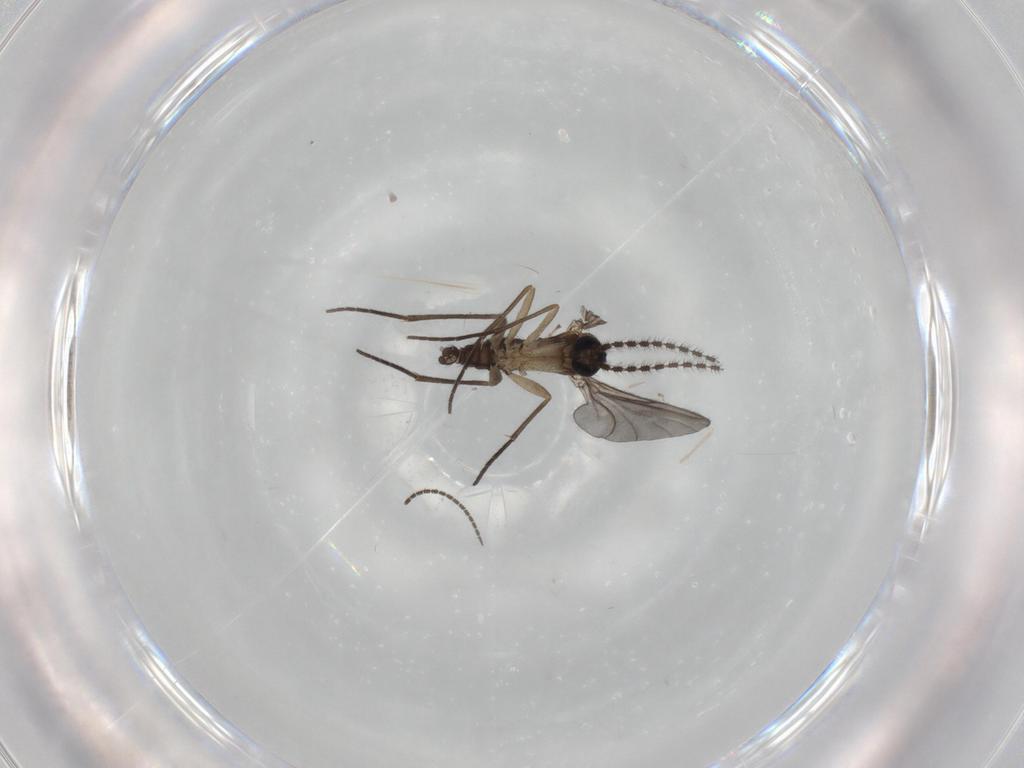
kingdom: Animalia
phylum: Arthropoda
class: Insecta
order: Diptera
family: Sciaridae
